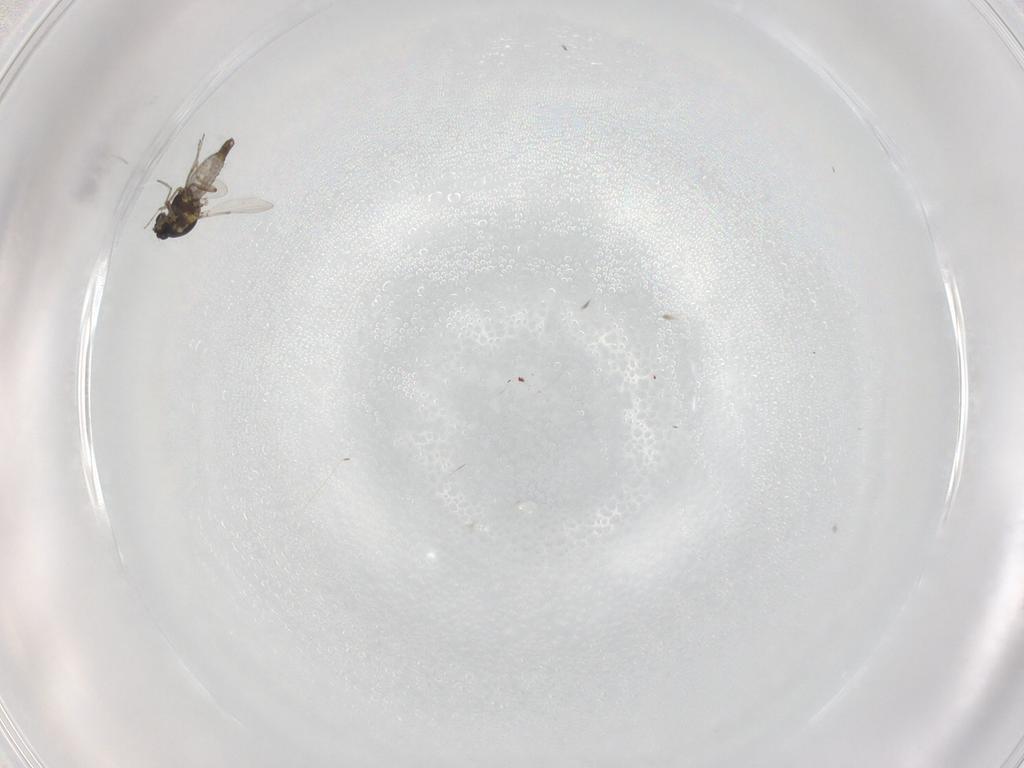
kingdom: Animalia
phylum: Arthropoda
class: Insecta
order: Diptera
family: Ceratopogonidae
